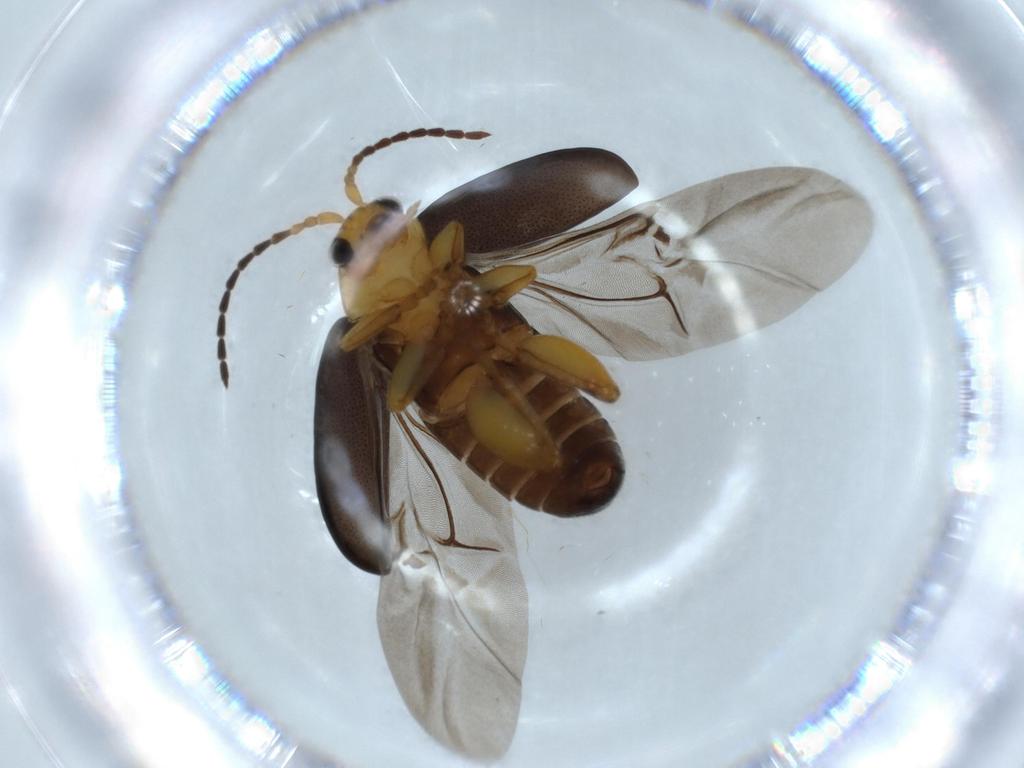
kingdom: Animalia
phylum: Arthropoda
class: Insecta
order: Coleoptera
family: Chrysomelidae
